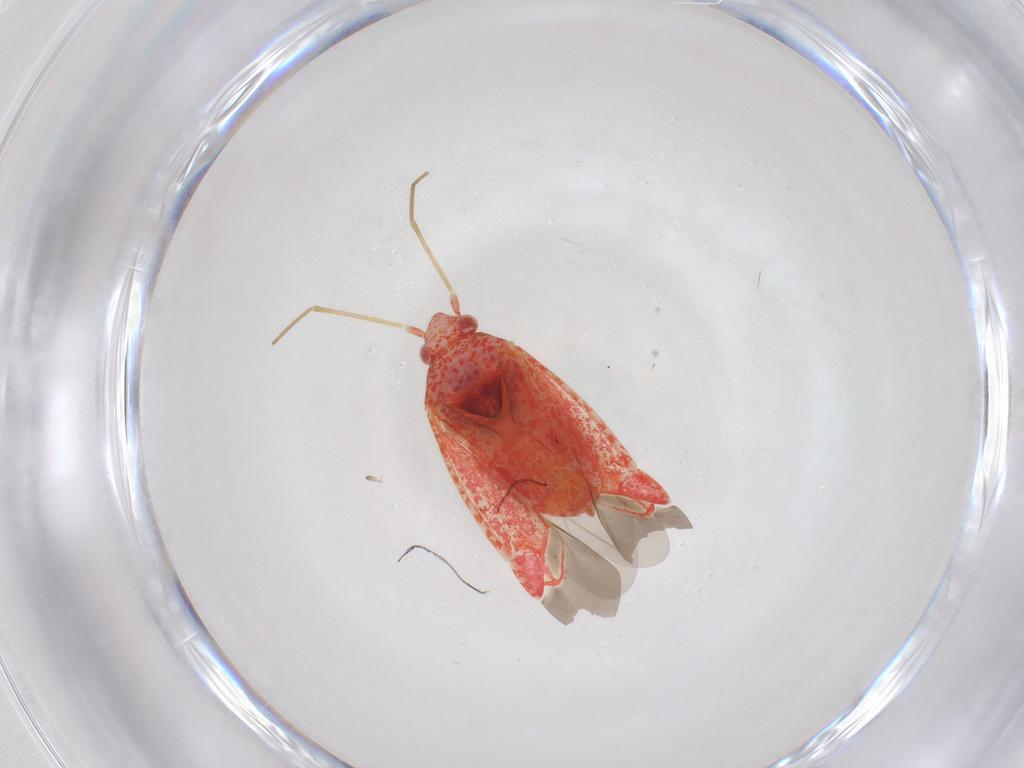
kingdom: Animalia
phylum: Arthropoda
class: Insecta
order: Hemiptera
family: Miridae
